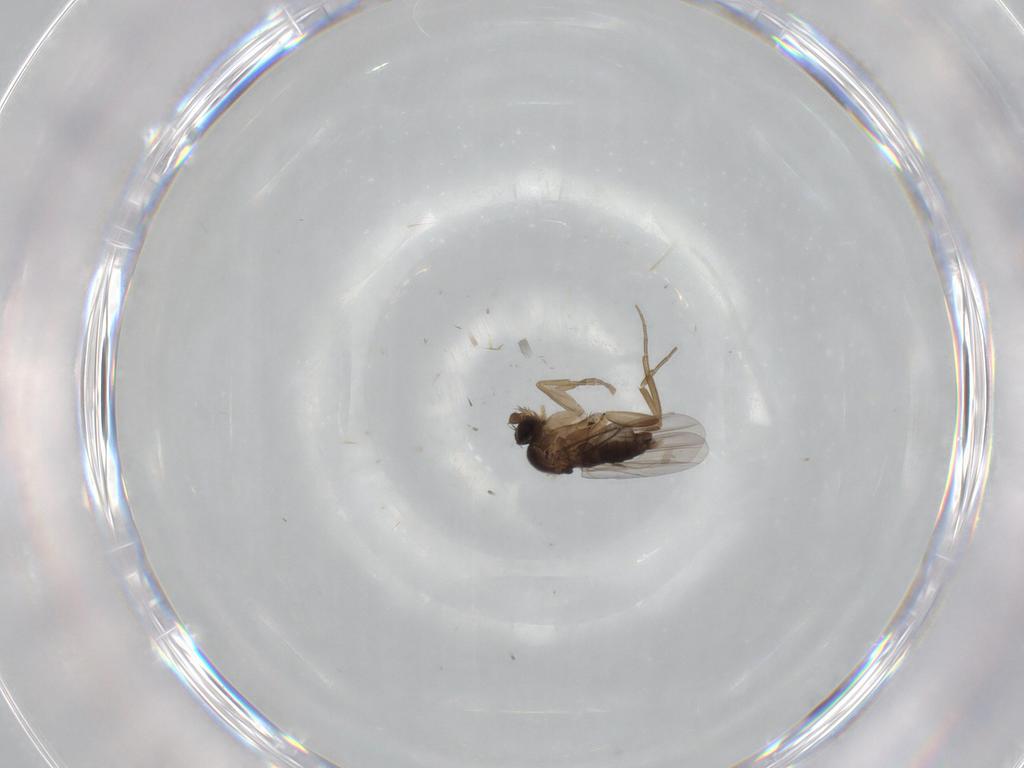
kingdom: Animalia
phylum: Arthropoda
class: Insecta
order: Diptera
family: Phoridae
